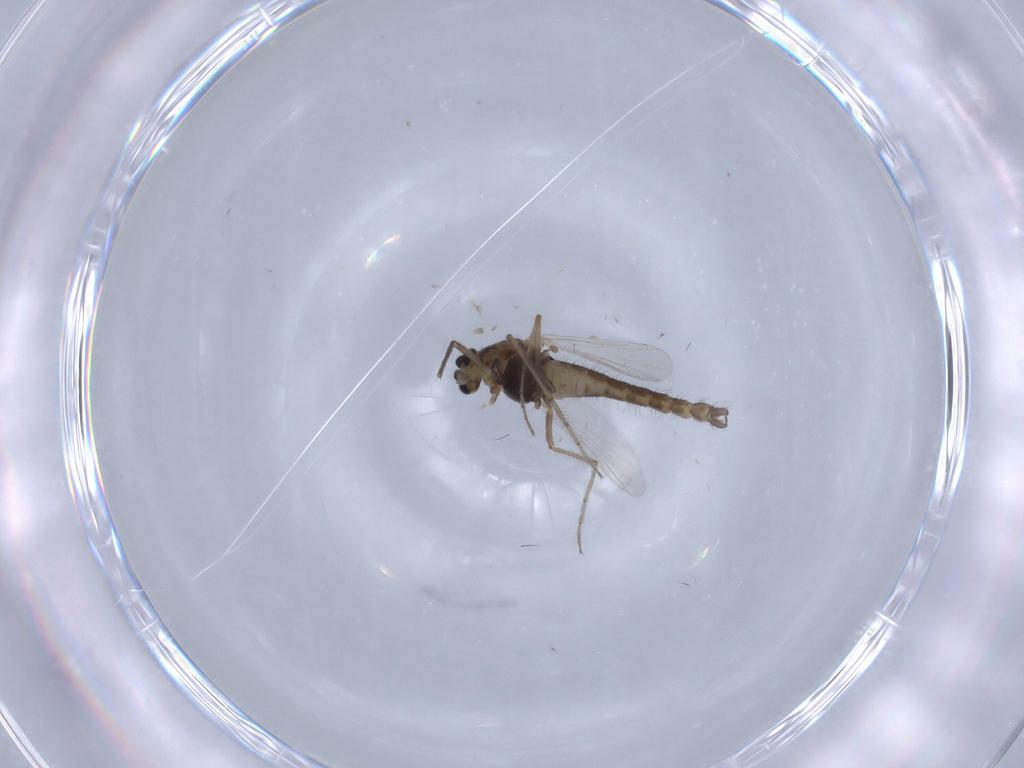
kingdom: Animalia
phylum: Arthropoda
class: Insecta
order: Diptera
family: Chironomidae
